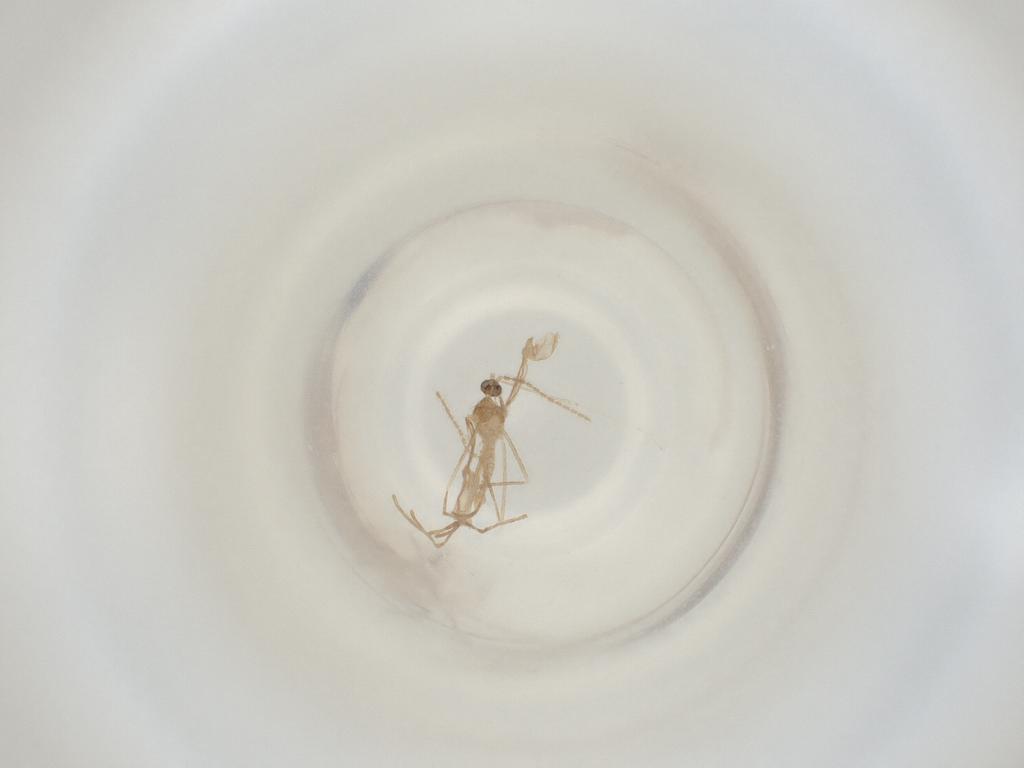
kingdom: Animalia
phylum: Arthropoda
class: Insecta
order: Diptera
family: Cecidomyiidae
